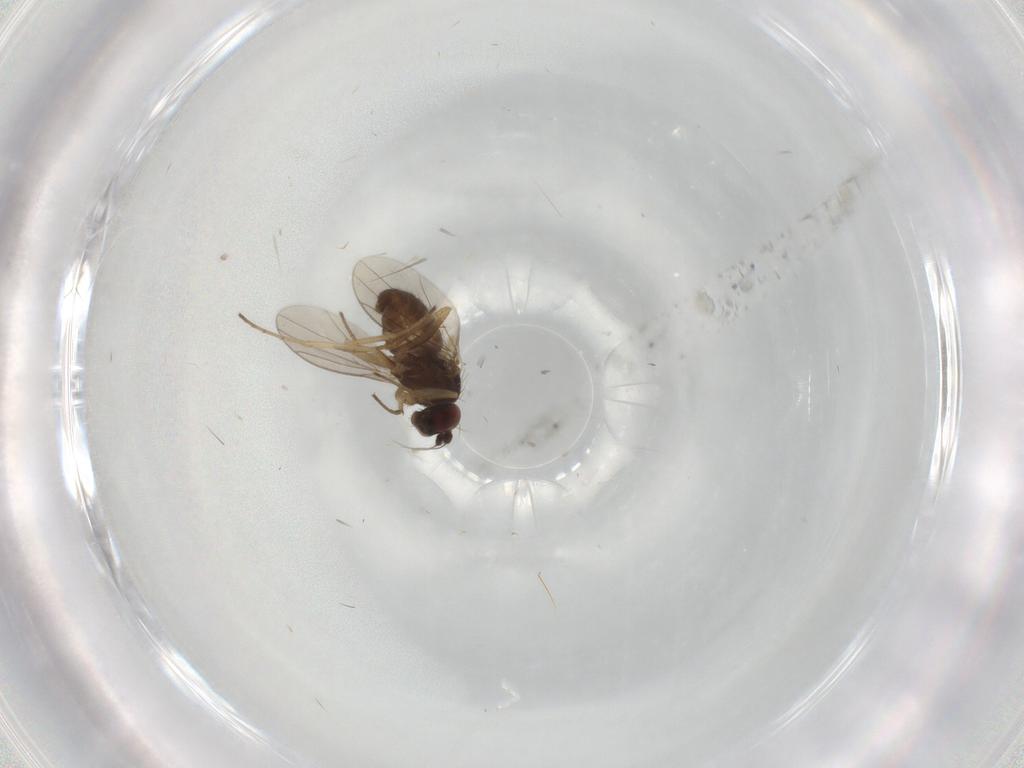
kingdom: Animalia
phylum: Arthropoda
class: Insecta
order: Diptera
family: Dolichopodidae
